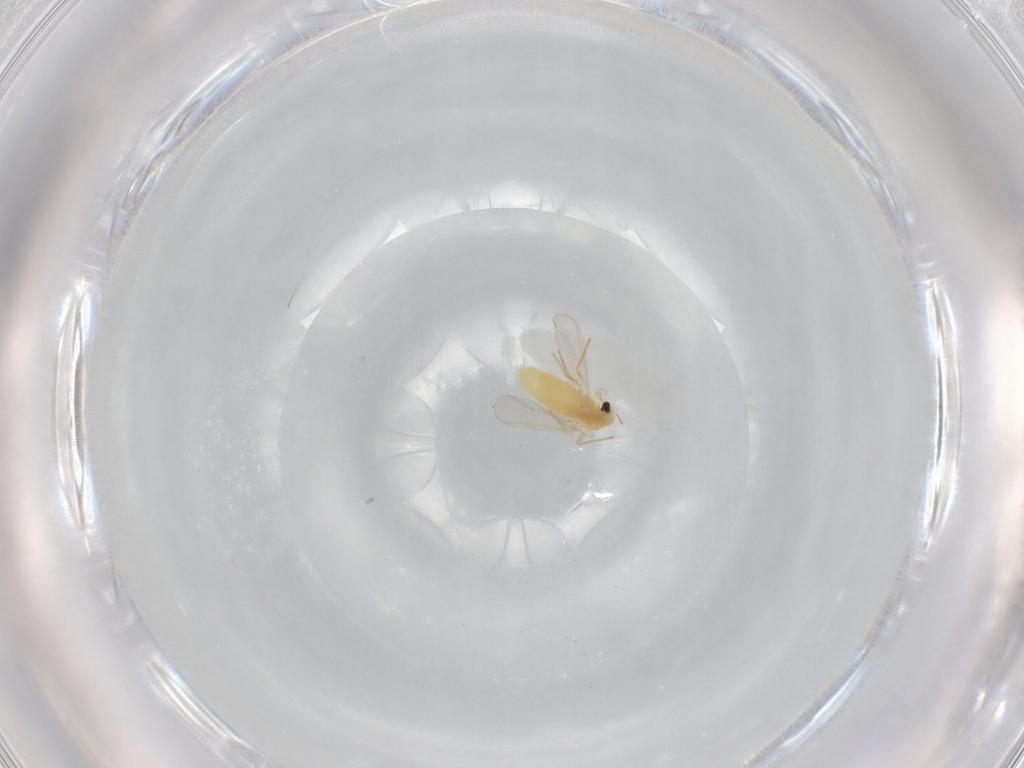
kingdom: Animalia
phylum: Arthropoda
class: Insecta
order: Diptera
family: Chironomidae
